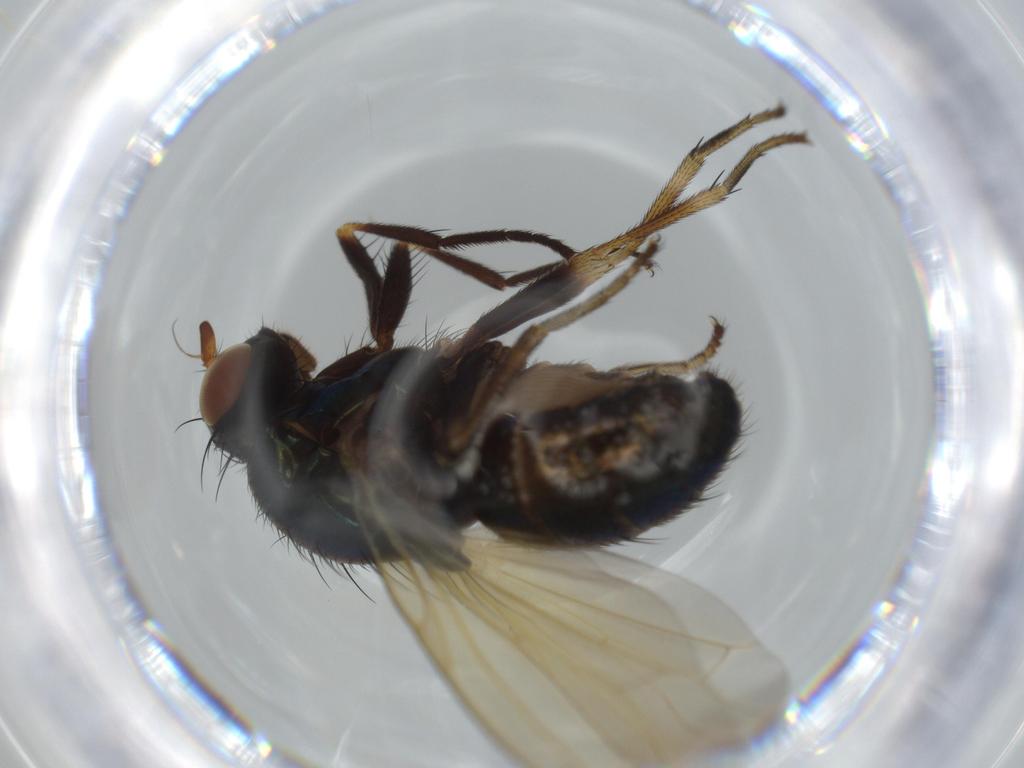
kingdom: Animalia
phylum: Arthropoda
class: Insecta
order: Diptera
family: Lauxaniidae
